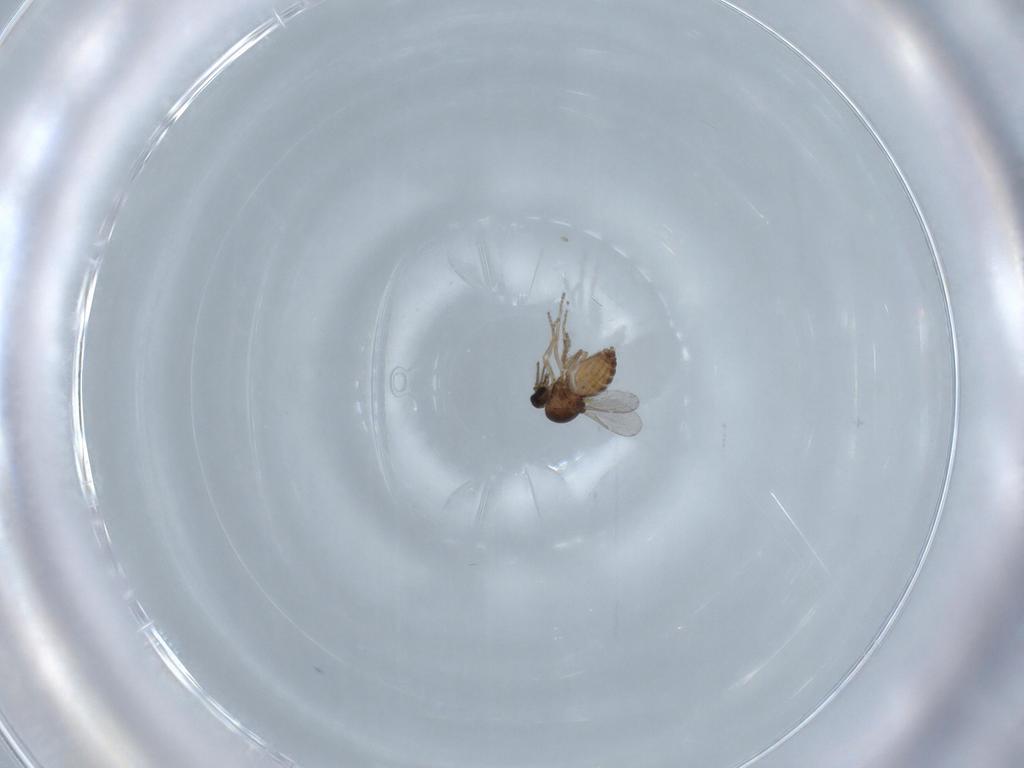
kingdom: Animalia
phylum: Arthropoda
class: Insecta
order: Diptera
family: Ceratopogonidae
